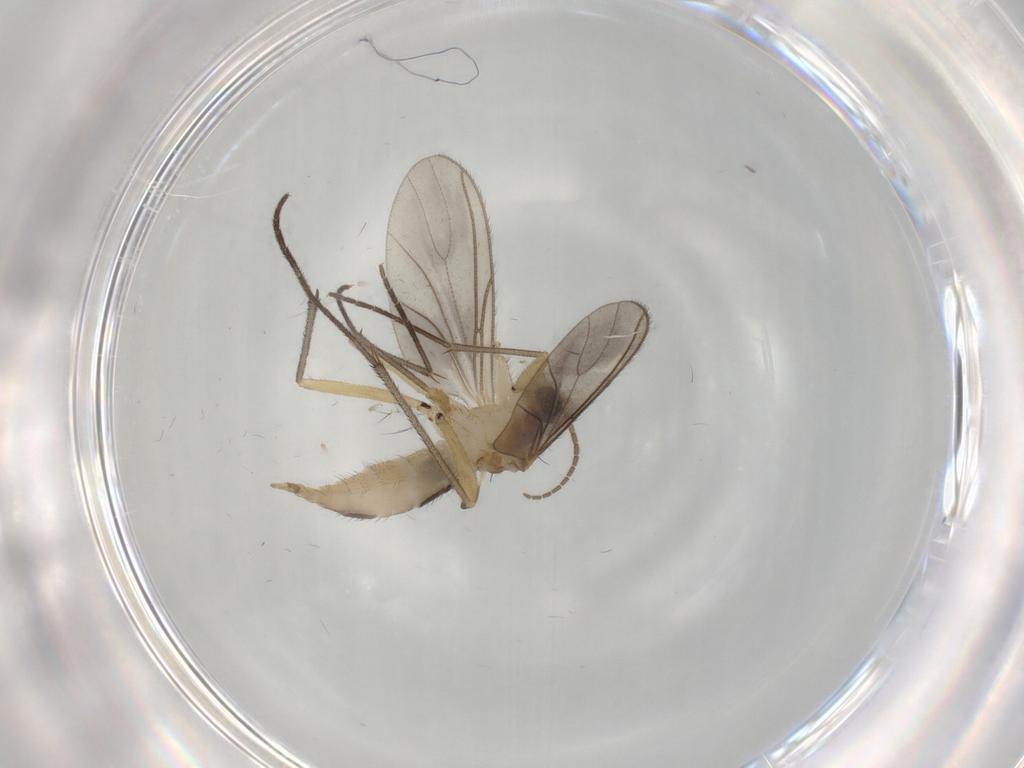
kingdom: Animalia
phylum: Arthropoda
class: Insecta
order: Diptera
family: Sciaridae
